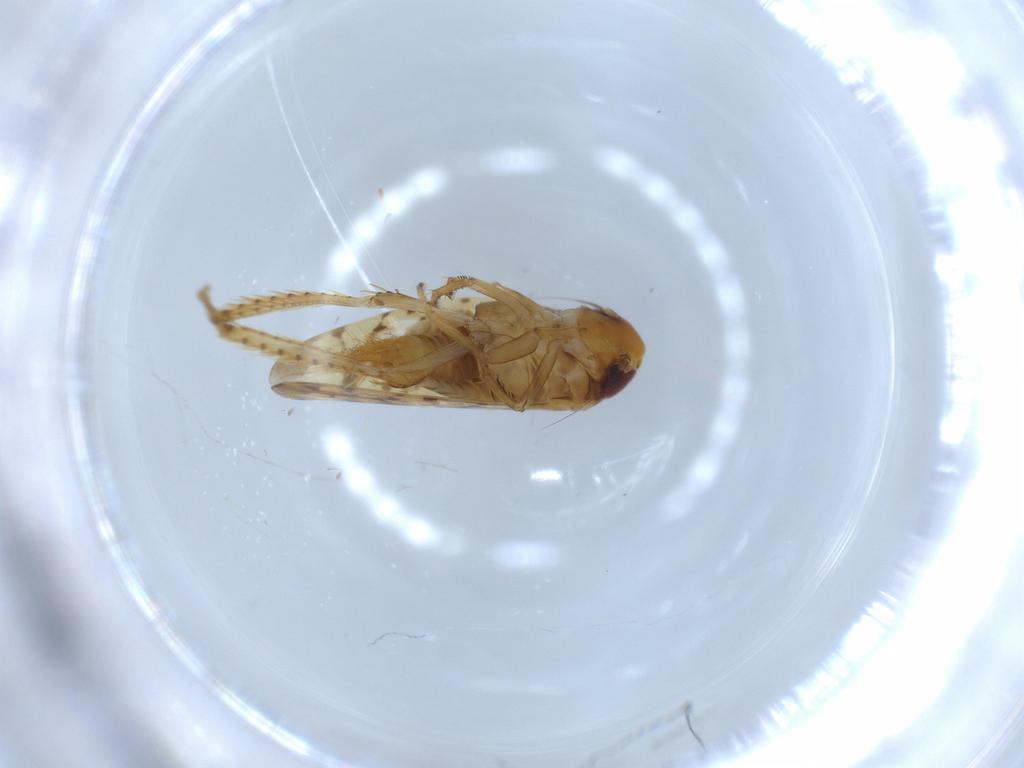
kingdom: Animalia
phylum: Arthropoda
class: Insecta
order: Hemiptera
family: Cicadellidae
